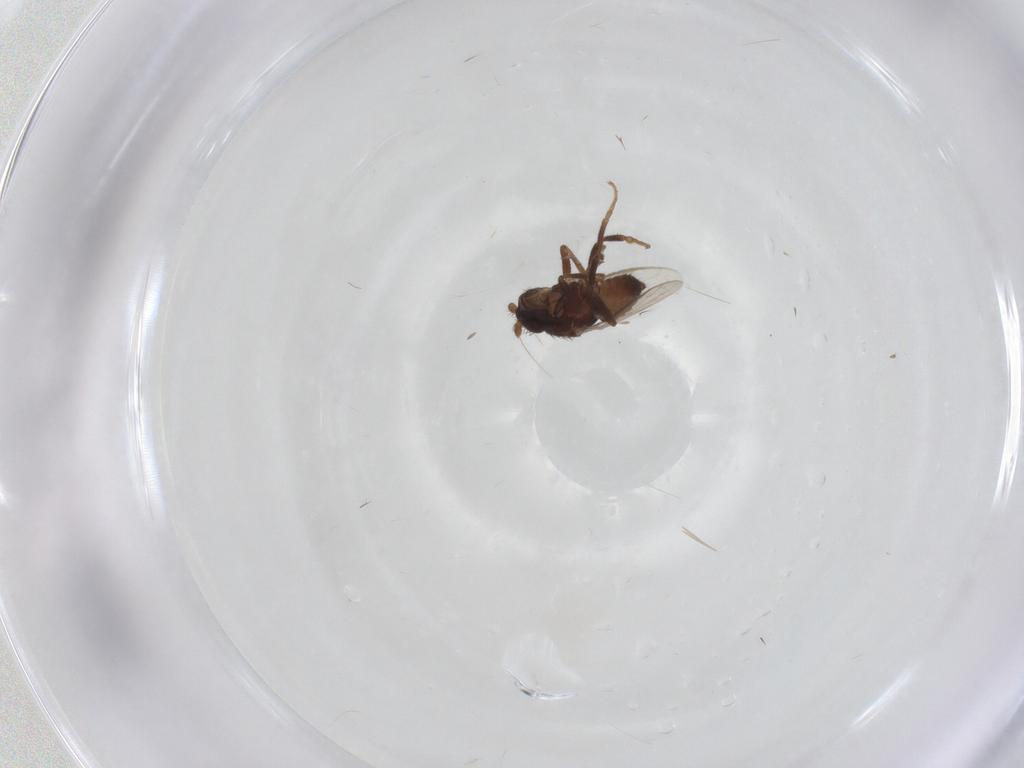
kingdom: Animalia
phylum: Arthropoda
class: Insecta
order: Diptera
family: Sphaeroceridae
